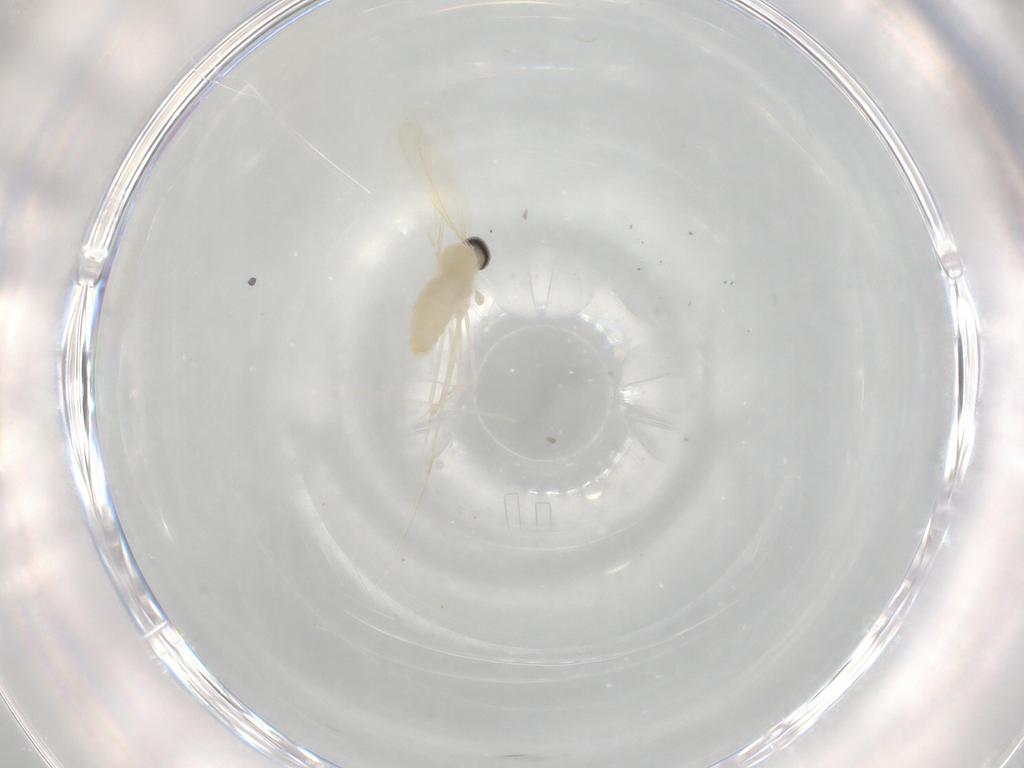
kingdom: Animalia
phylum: Arthropoda
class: Insecta
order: Diptera
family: Cecidomyiidae
